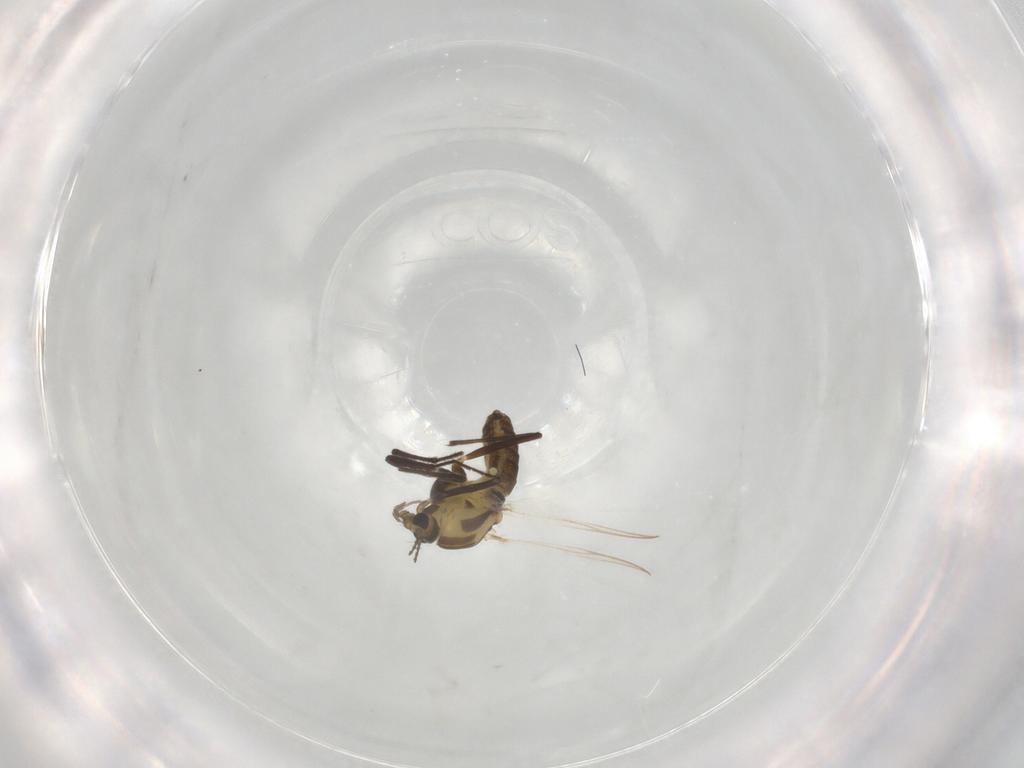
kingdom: Animalia
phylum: Arthropoda
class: Insecta
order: Diptera
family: Chironomidae
